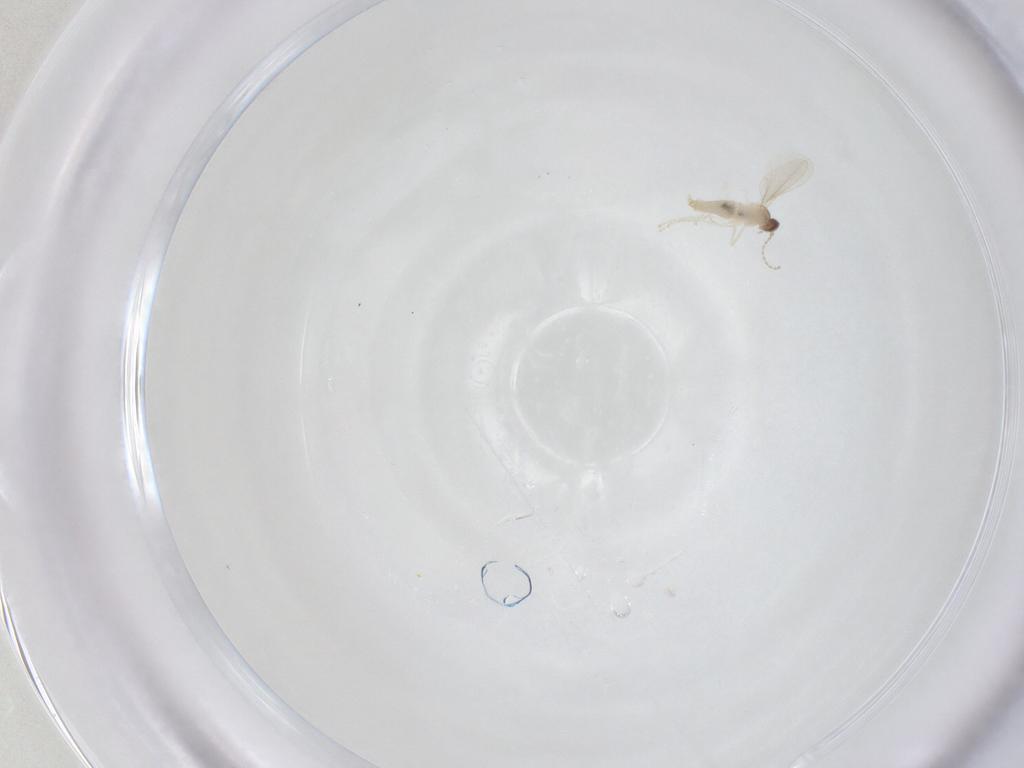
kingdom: Animalia
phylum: Arthropoda
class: Insecta
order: Diptera
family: Cecidomyiidae
